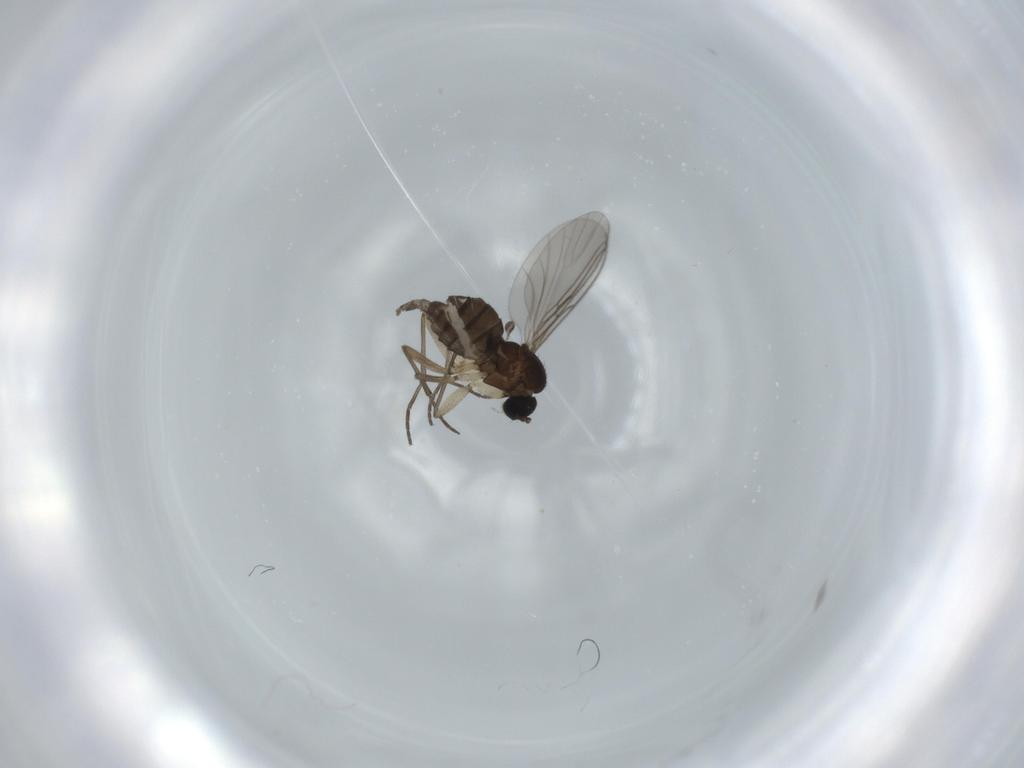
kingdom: Animalia
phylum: Arthropoda
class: Insecta
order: Diptera
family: Sciaridae
